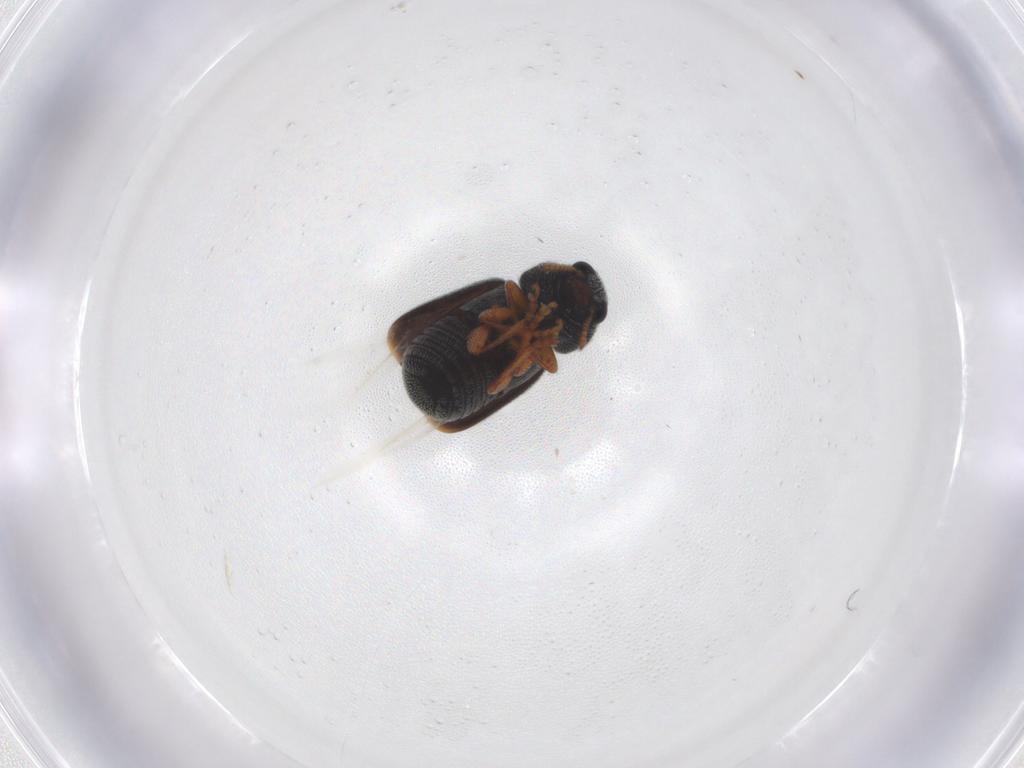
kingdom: Animalia
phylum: Arthropoda
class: Insecta
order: Coleoptera
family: Anthribidae
